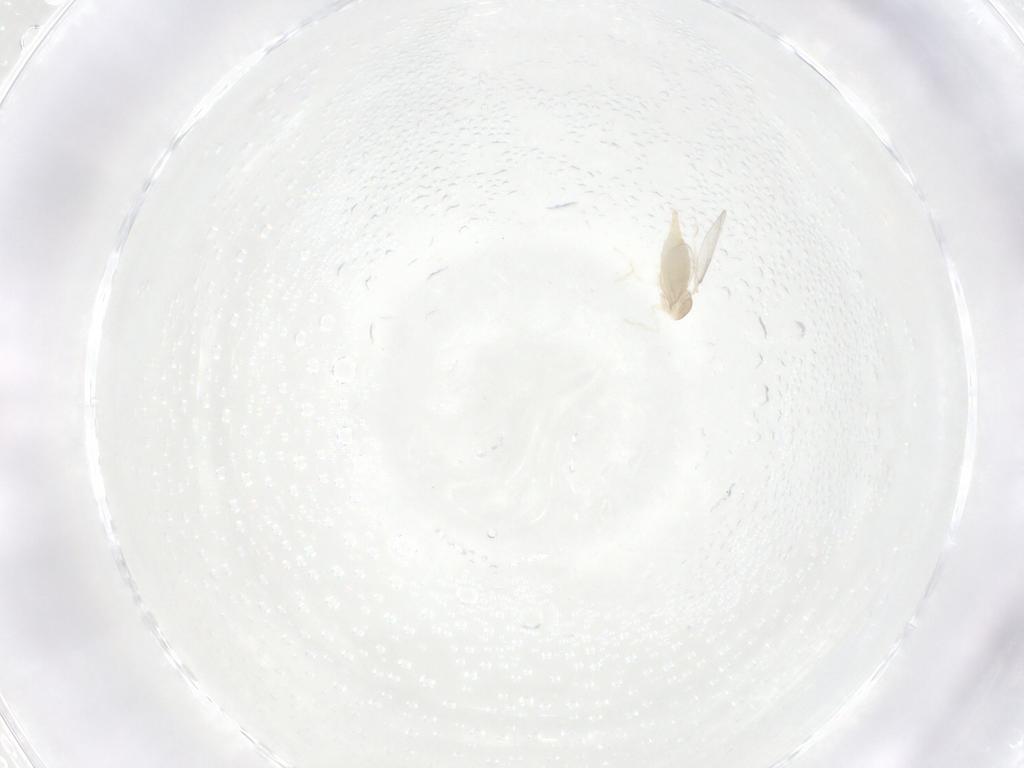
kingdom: Animalia
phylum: Arthropoda
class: Insecta
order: Diptera
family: Cecidomyiidae
